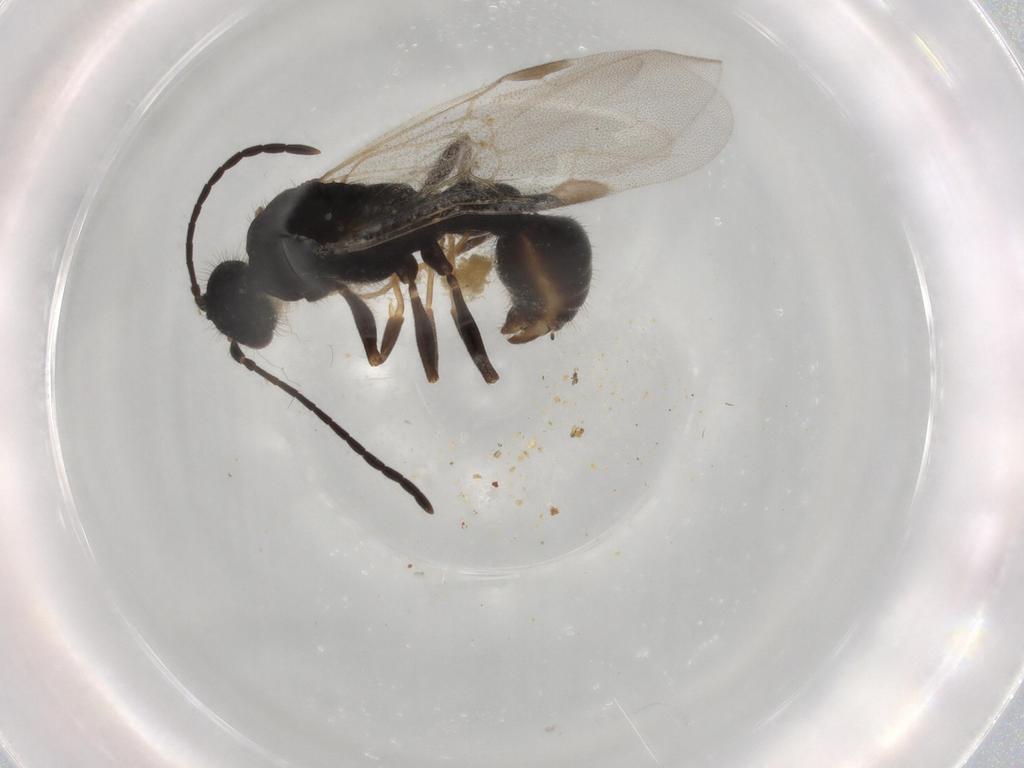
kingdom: Animalia
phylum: Arthropoda
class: Insecta
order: Hymenoptera
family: Formicidae
